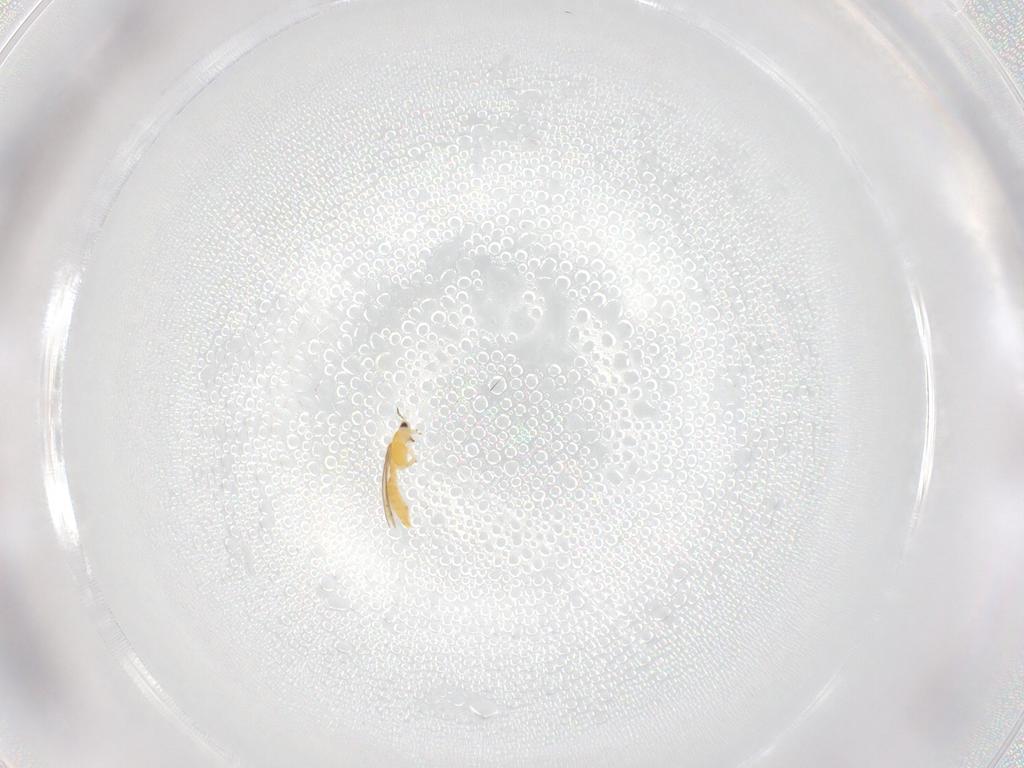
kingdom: Animalia
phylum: Arthropoda
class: Insecta
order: Thysanoptera
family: Thripidae
